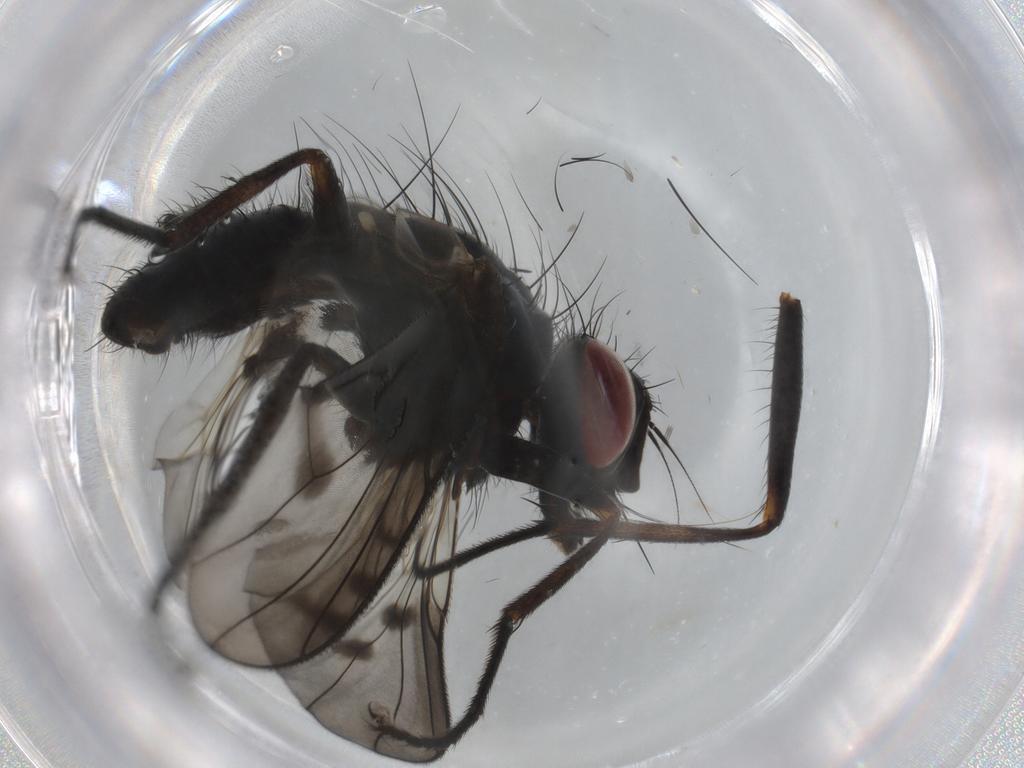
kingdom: Animalia
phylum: Arthropoda
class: Insecta
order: Diptera
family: Muscidae
